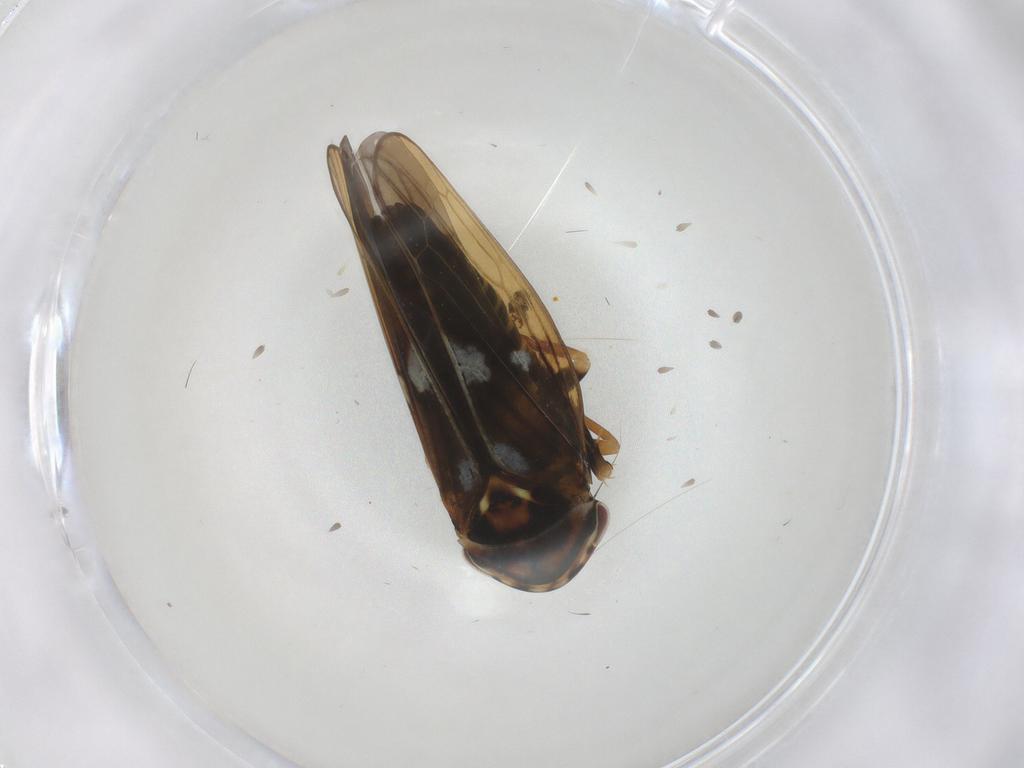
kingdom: Animalia
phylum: Arthropoda
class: Insecta
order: Hemiptera
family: Cicadellidae
